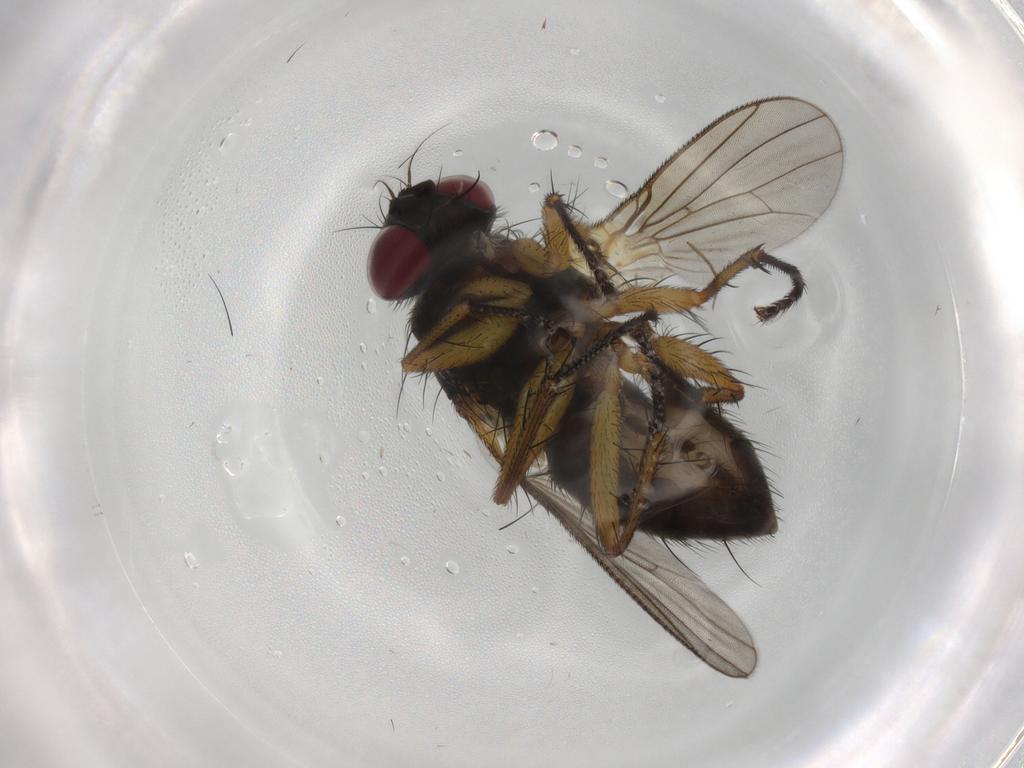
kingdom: Animalia
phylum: Arthropoda
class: Insecta
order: Diptera
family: Muscidae
